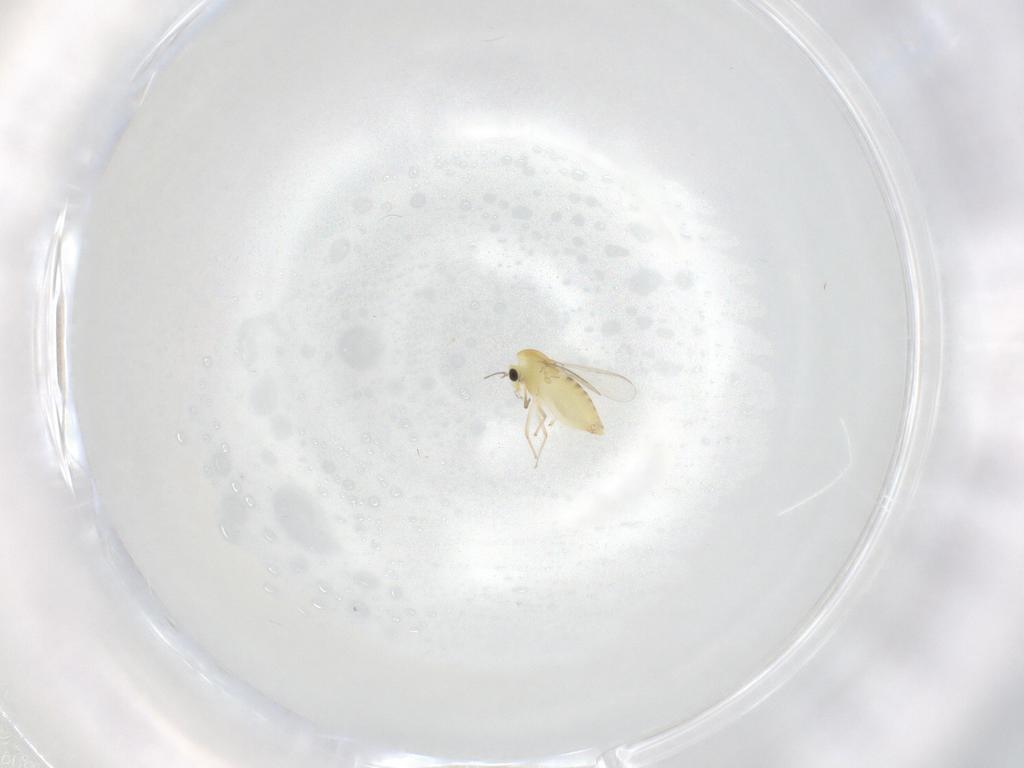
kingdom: Animalia
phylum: Arthropoda
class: Insecta
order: Diptera
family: Chironomidae
